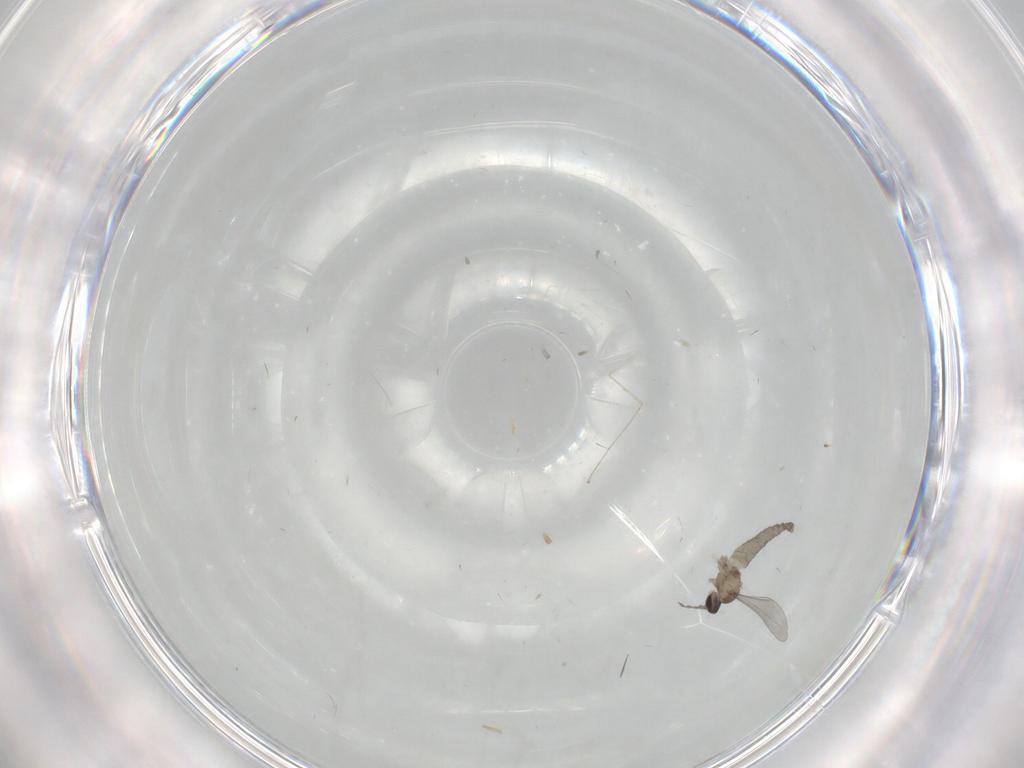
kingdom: Animalia
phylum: Arthropoda
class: Insecta
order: Diptera
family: Cecidomyiidae
